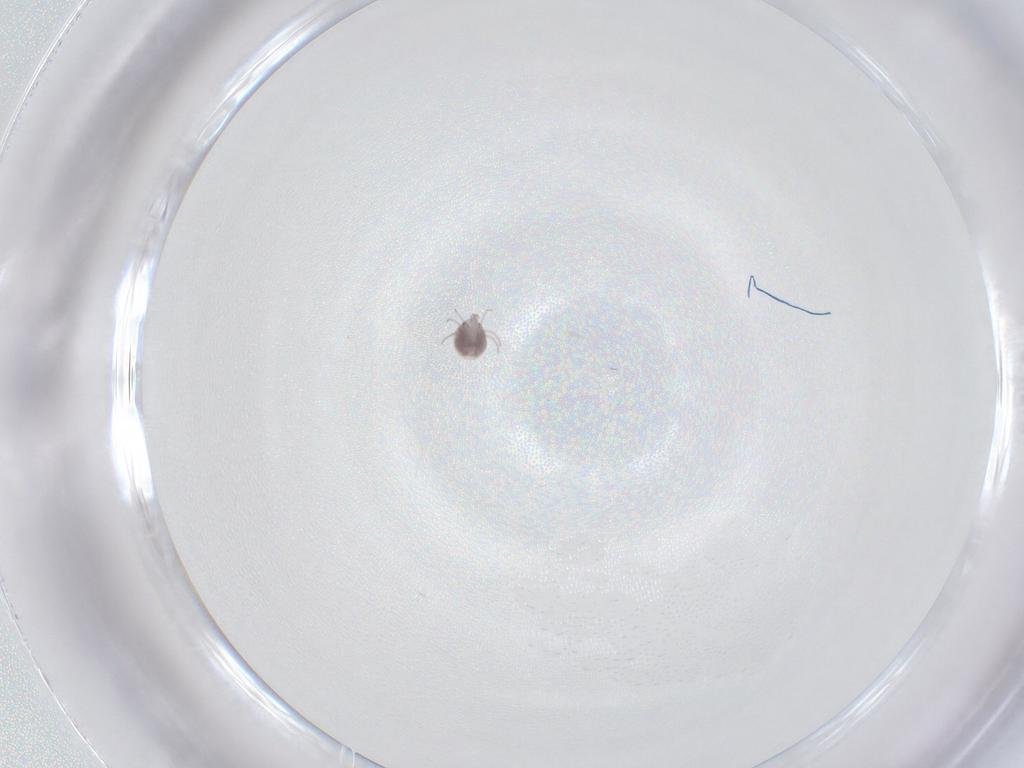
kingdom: Animalia
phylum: Arthropoda
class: Arachnida
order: Trombidiformes
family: Pionidae
